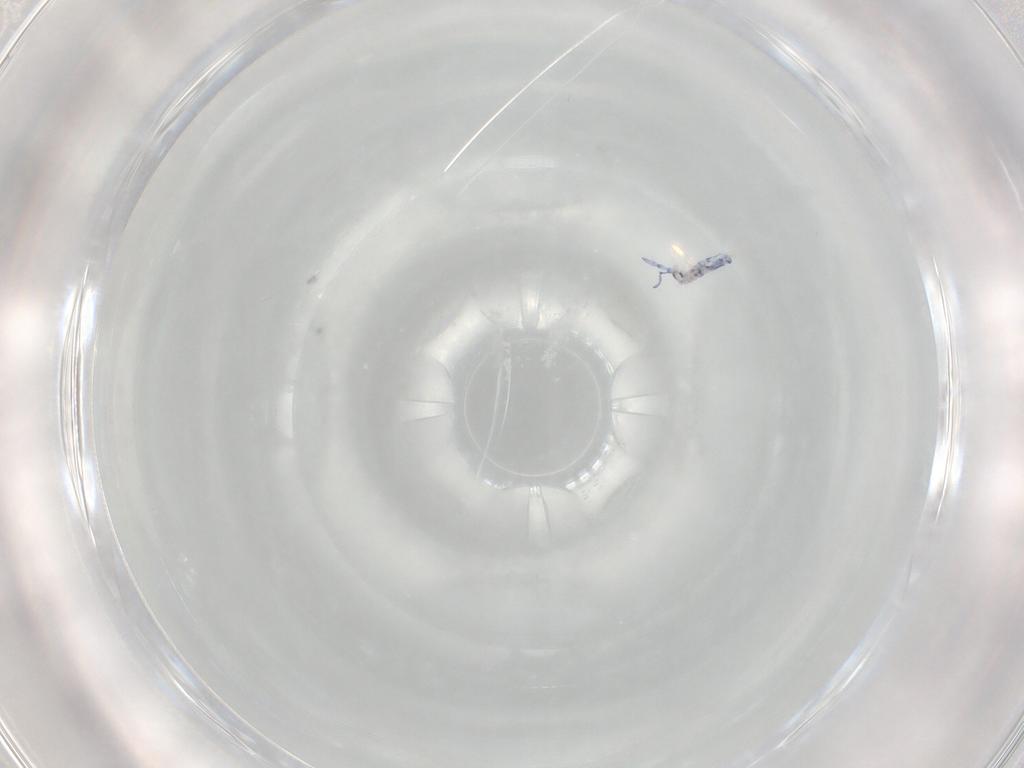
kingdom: Animalia
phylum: Arthropoda
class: Collembola
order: Entomobryomorpha
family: Entomobryidae
